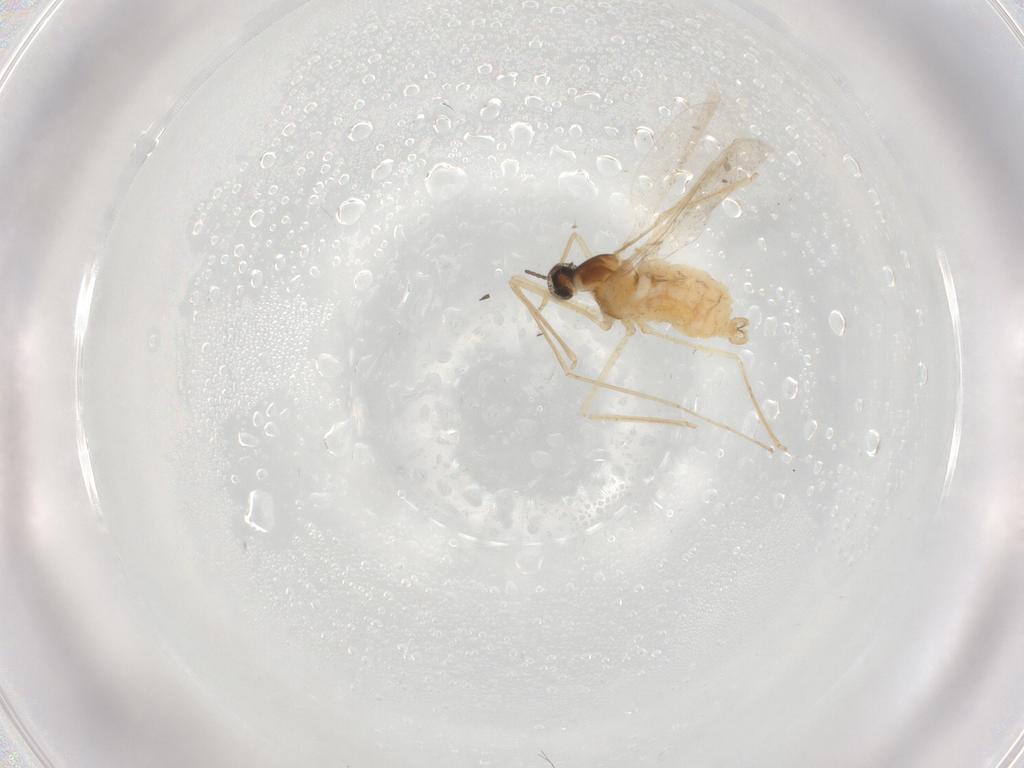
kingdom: Animalia
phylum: Arthropoda
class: Insecta
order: Diptera
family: Cecidomyiidae
